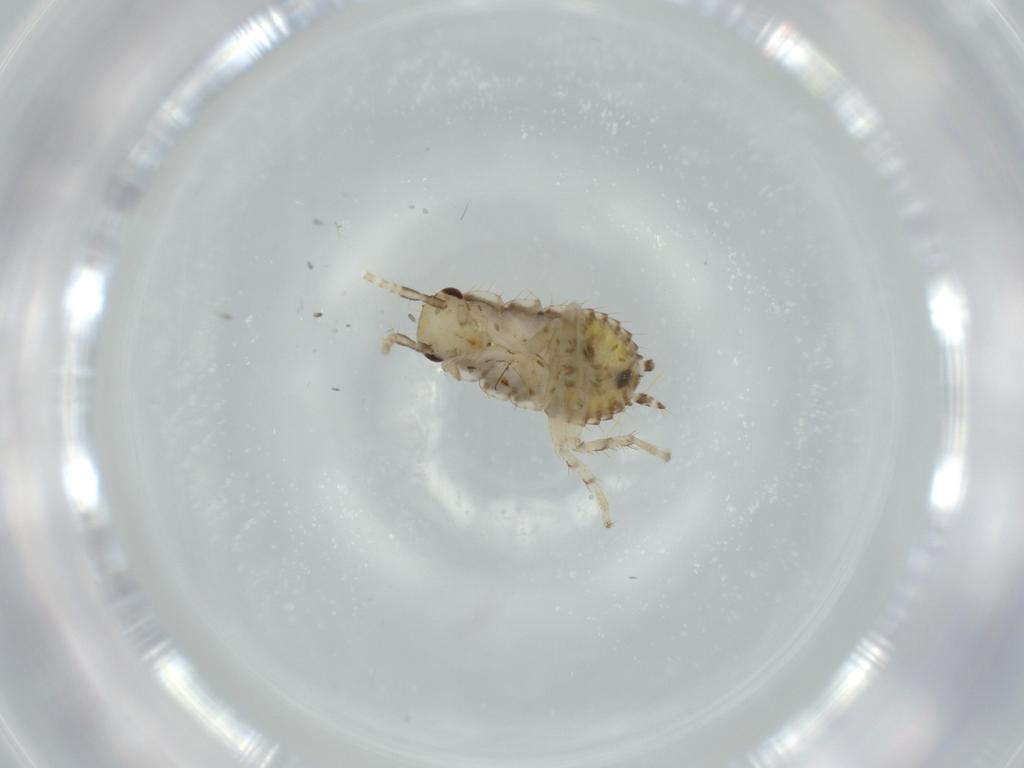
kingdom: Animalia
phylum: Arthropoda
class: Insecta
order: Blattodea
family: Ectobiidae
